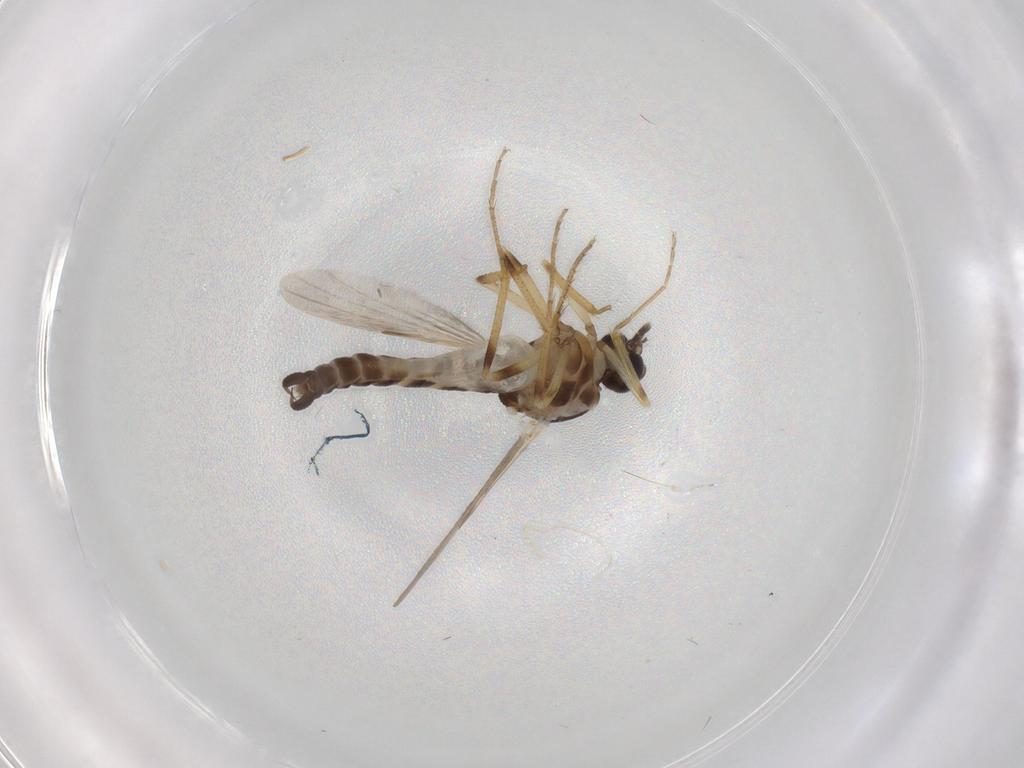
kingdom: Animalia
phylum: Arthropoda
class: Insecta
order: Diptera
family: Ceratopogonidae
